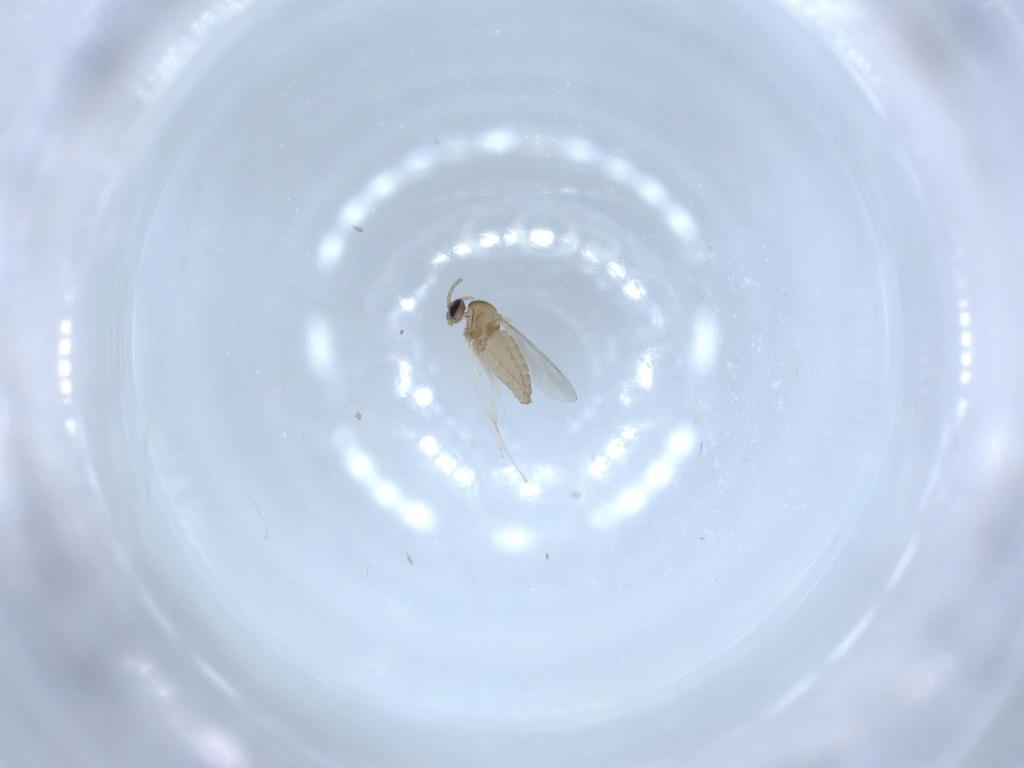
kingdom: Animalia
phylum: Arthropoda
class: Insecta
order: Diptera
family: Cecidomyiidae
